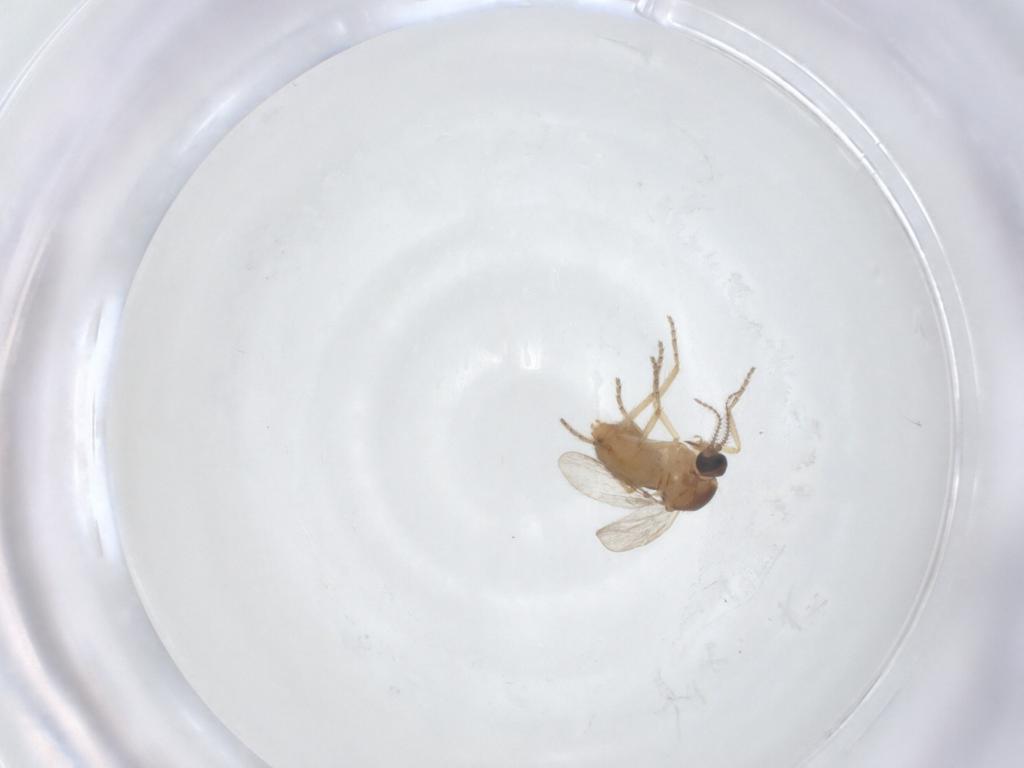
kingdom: Animalia
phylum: Arthropoda
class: Insecta
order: Diptera
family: Ceratopogonidae
